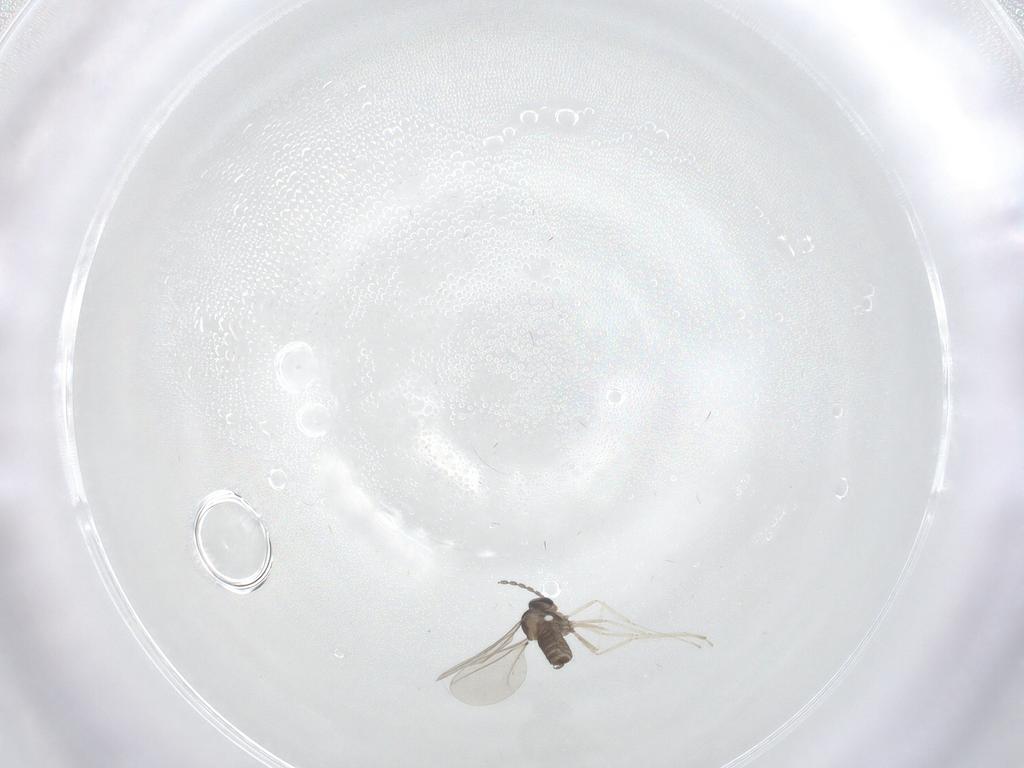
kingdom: Animalia
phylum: Arthropoda
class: Insecta
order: Diptera
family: Cecidomyiidae
